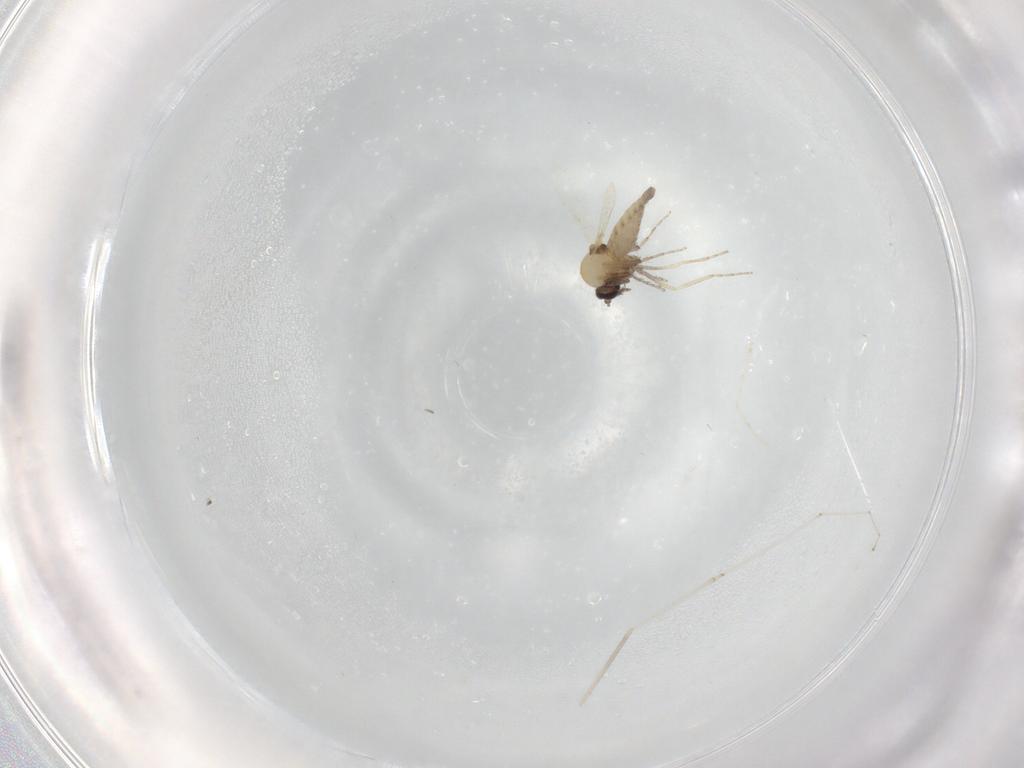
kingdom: Animalia
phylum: Arthropoda
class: Insecta
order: Diptera
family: Ceratopogonidae
